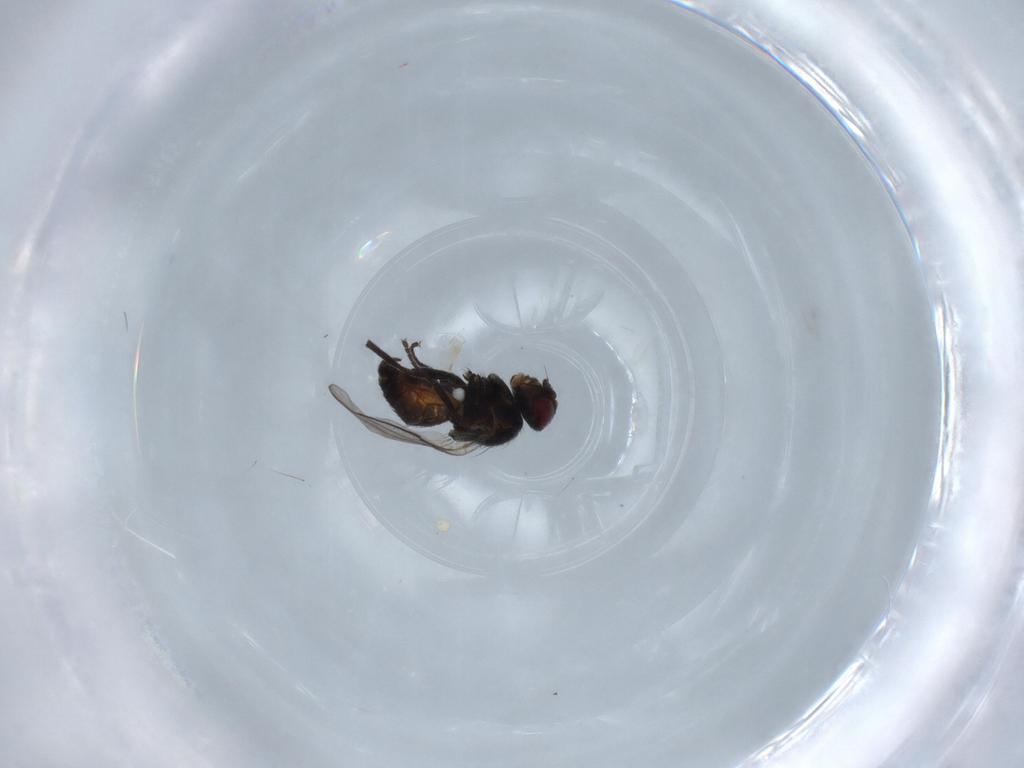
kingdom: Animalia
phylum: Arthropoda
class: Insecta
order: Diptera
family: Agromyzidae
